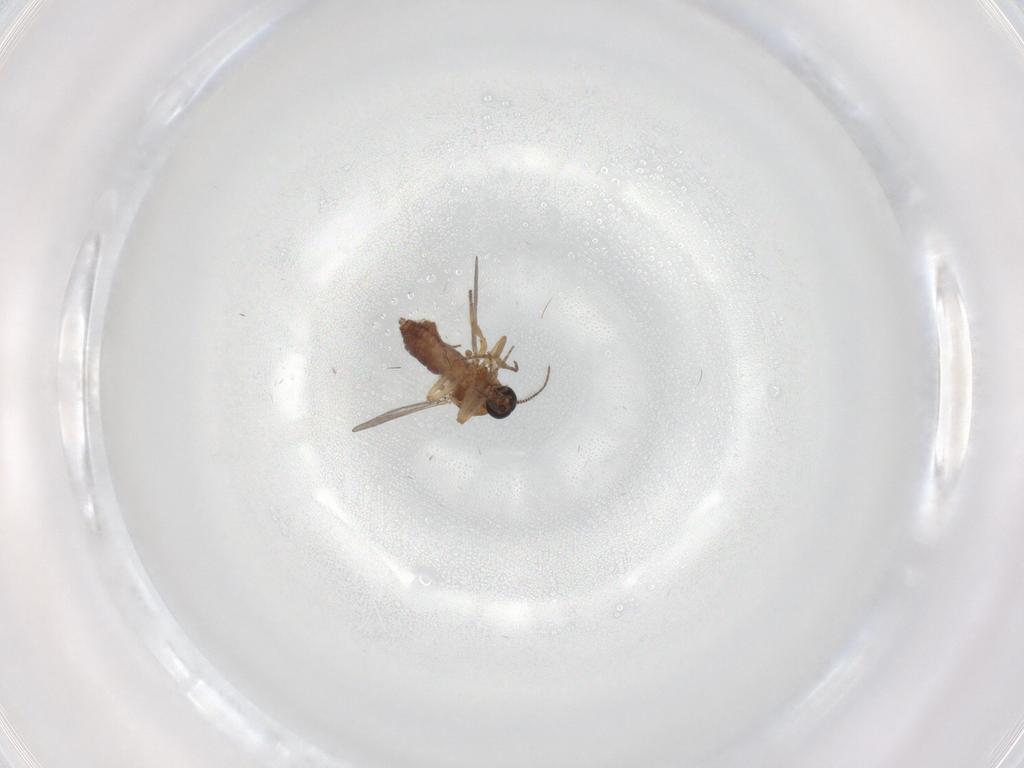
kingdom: Animalia
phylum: Arthropoda
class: Insecta
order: Diptera
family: Ceratopogonidae
